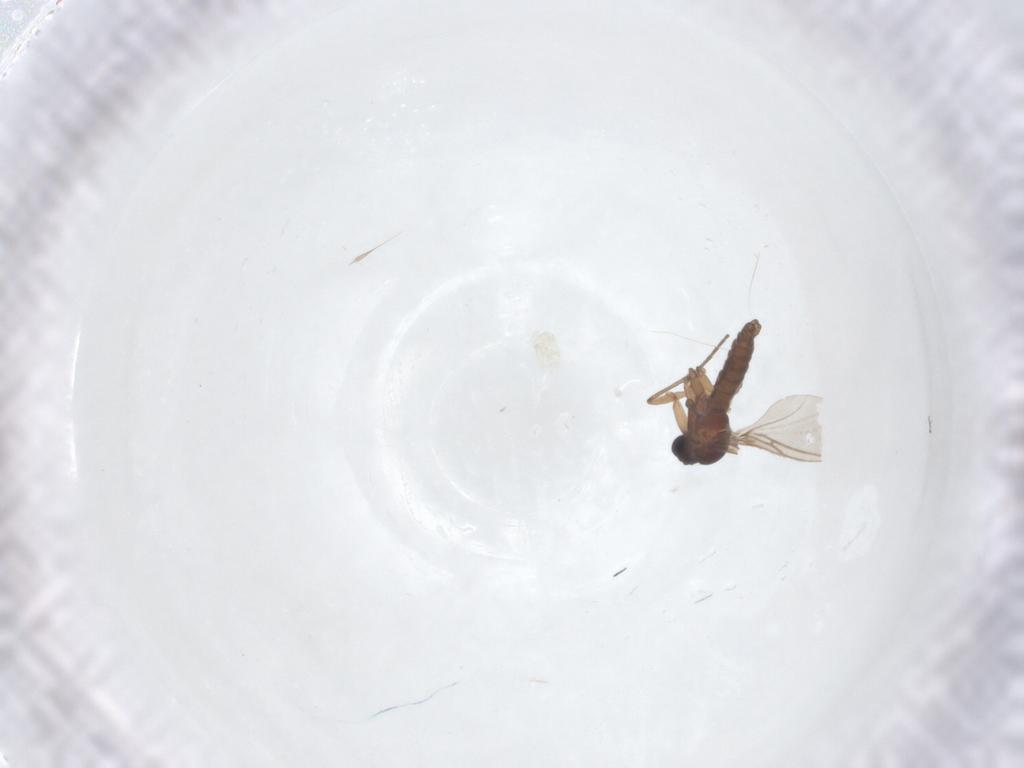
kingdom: Animalia
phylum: Arthropoda
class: Insecta
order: Diptera
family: Sciaridae
